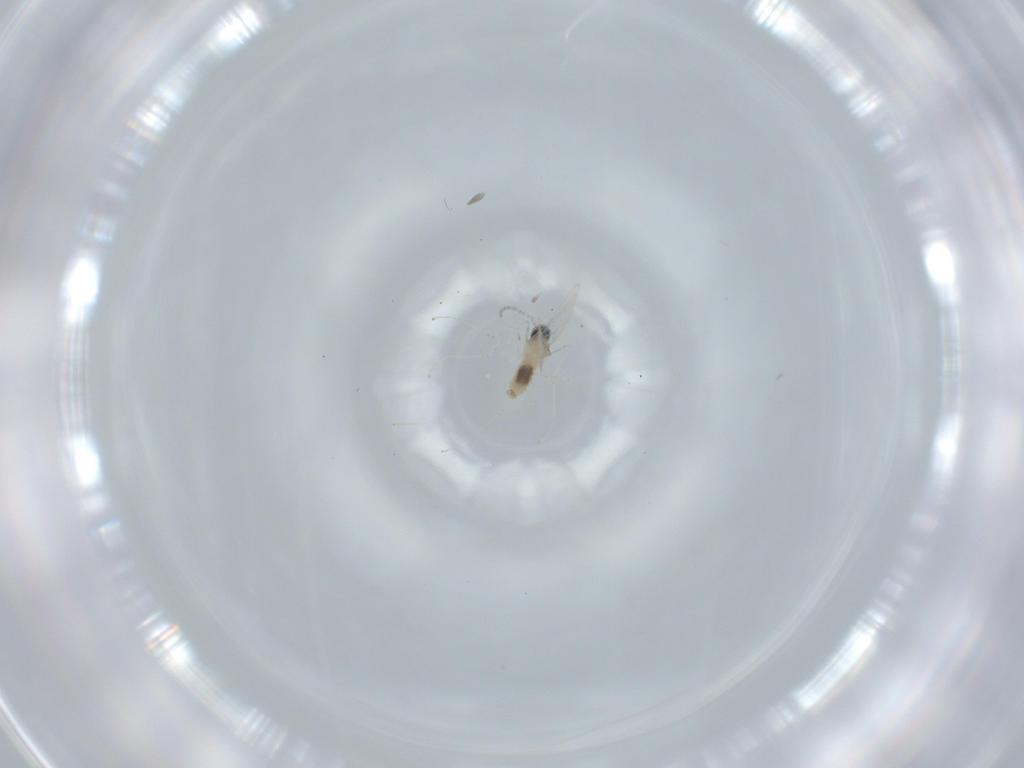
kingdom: Animalia
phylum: Arthropoda
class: Insecta
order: Diptera
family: Cecidomyiidae
